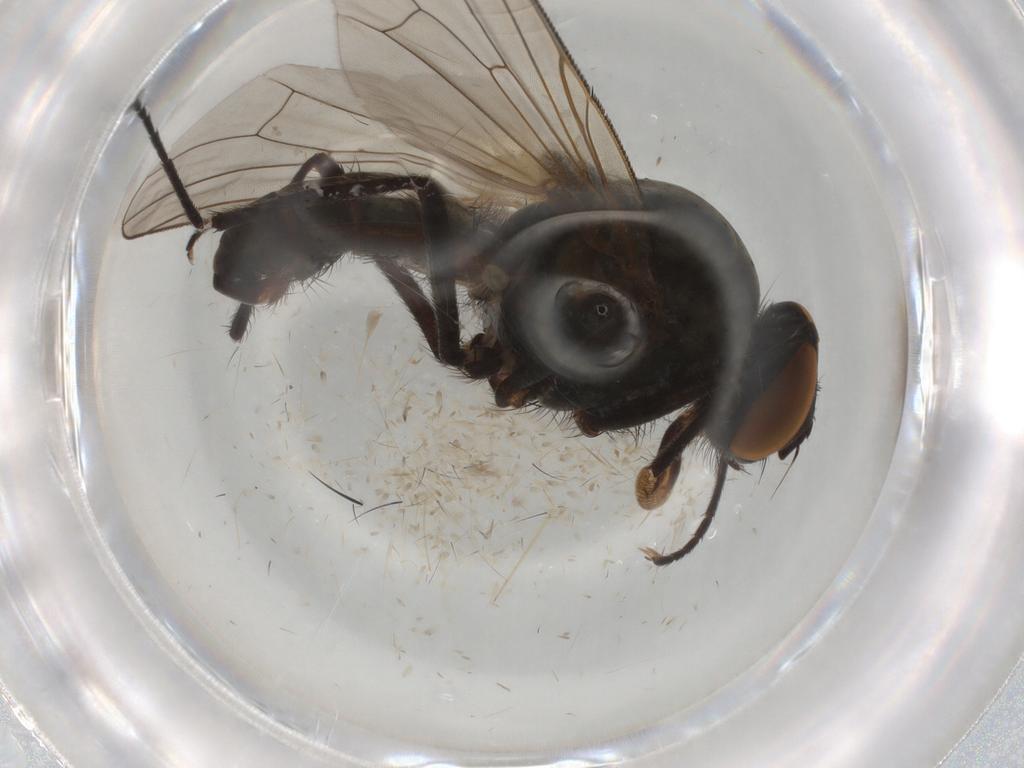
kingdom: Animalia
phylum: Arthropoda
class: Insecta
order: Diptera
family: Anthomyiidae
